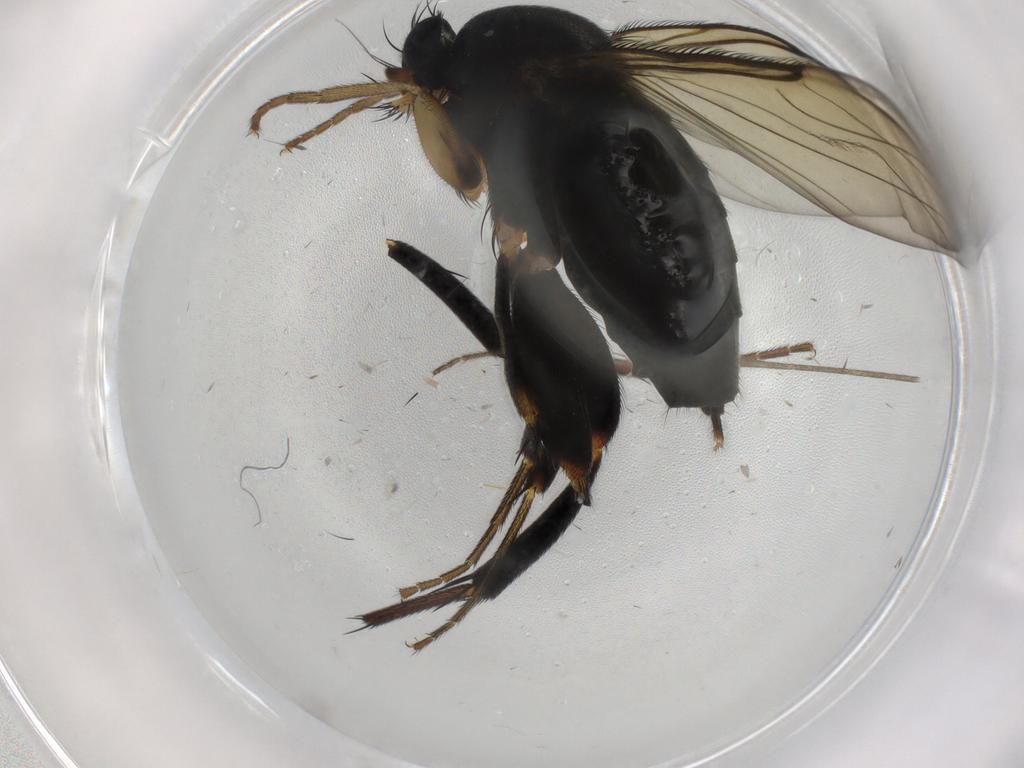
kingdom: Animalia
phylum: Arthropoda
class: Insecta
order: Diptera
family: Phoridae
